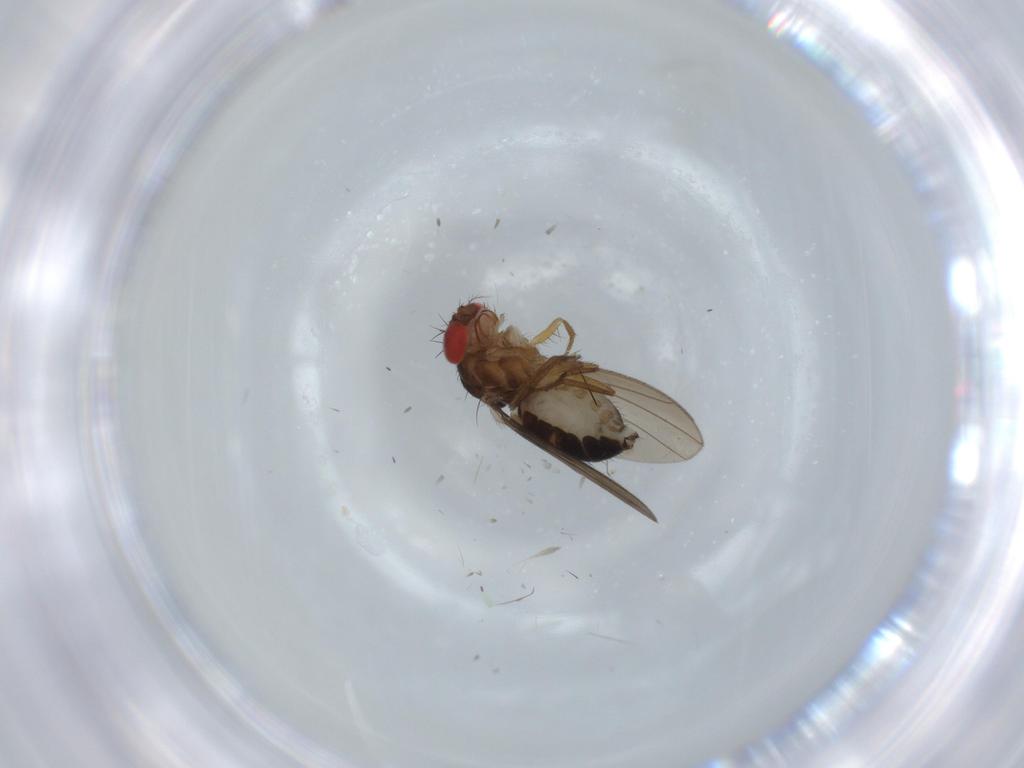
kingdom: Animalia
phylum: Arthropoda
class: Insecta
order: Diptera
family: Drosophilidae
